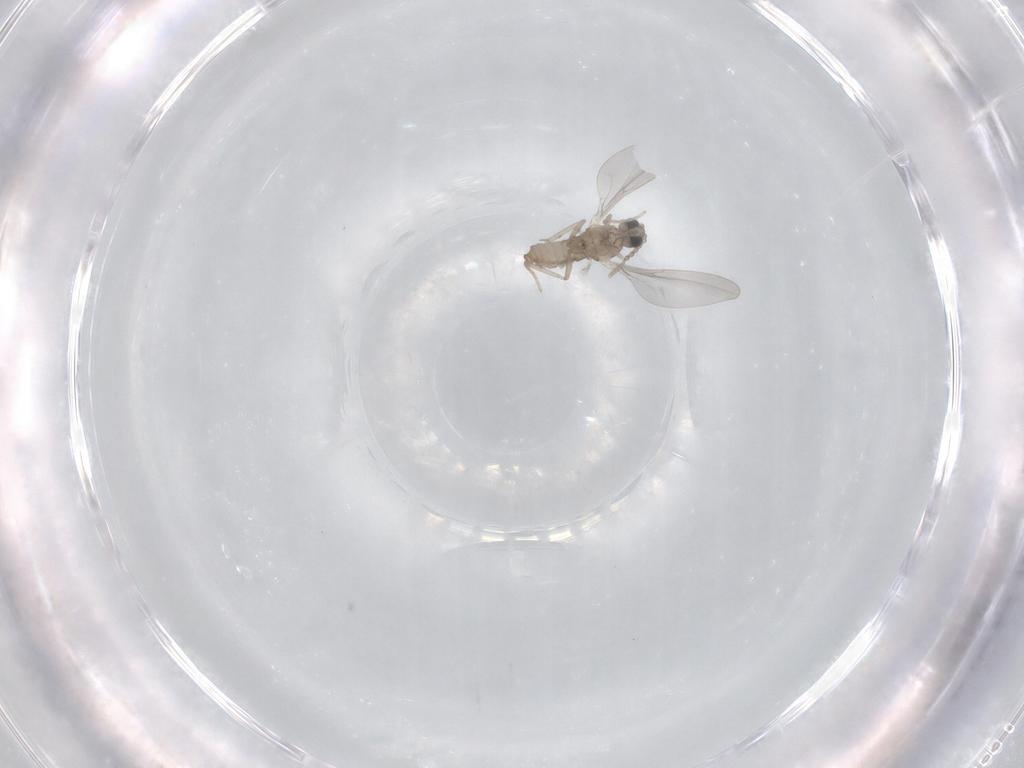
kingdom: Animalia
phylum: Arthropoda
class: Insecta
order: Diptera
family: Cecidomyiidae
